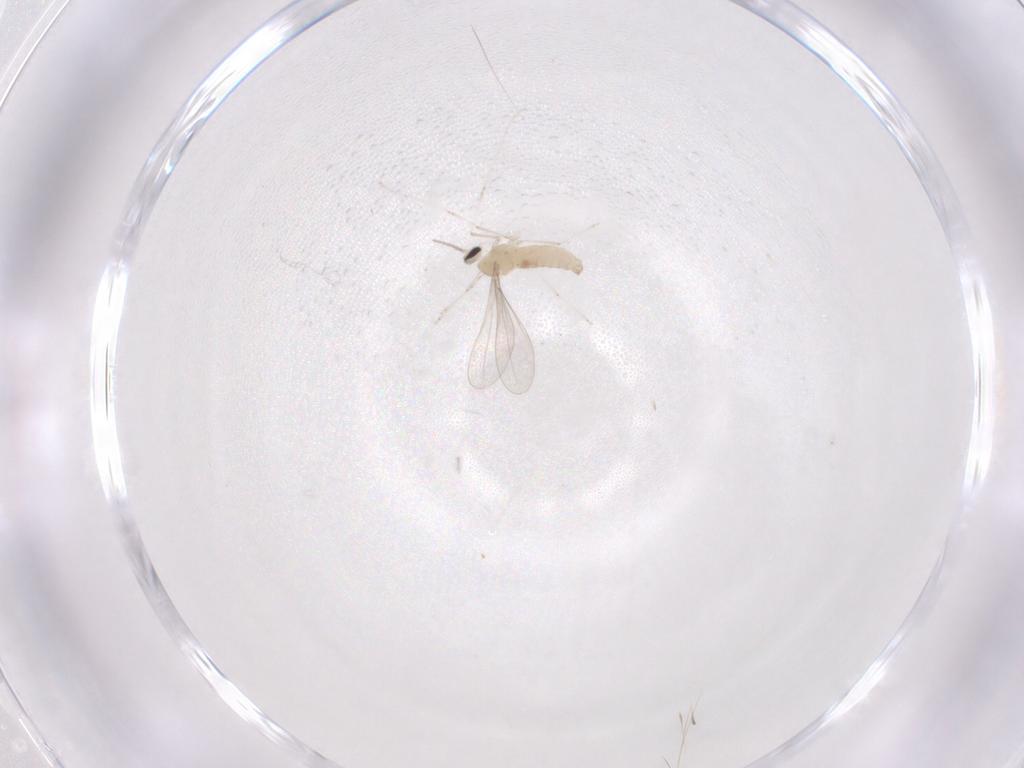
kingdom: Animalia
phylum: Arthropoda
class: Insecta
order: Diptera
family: Cecidomyiidae
